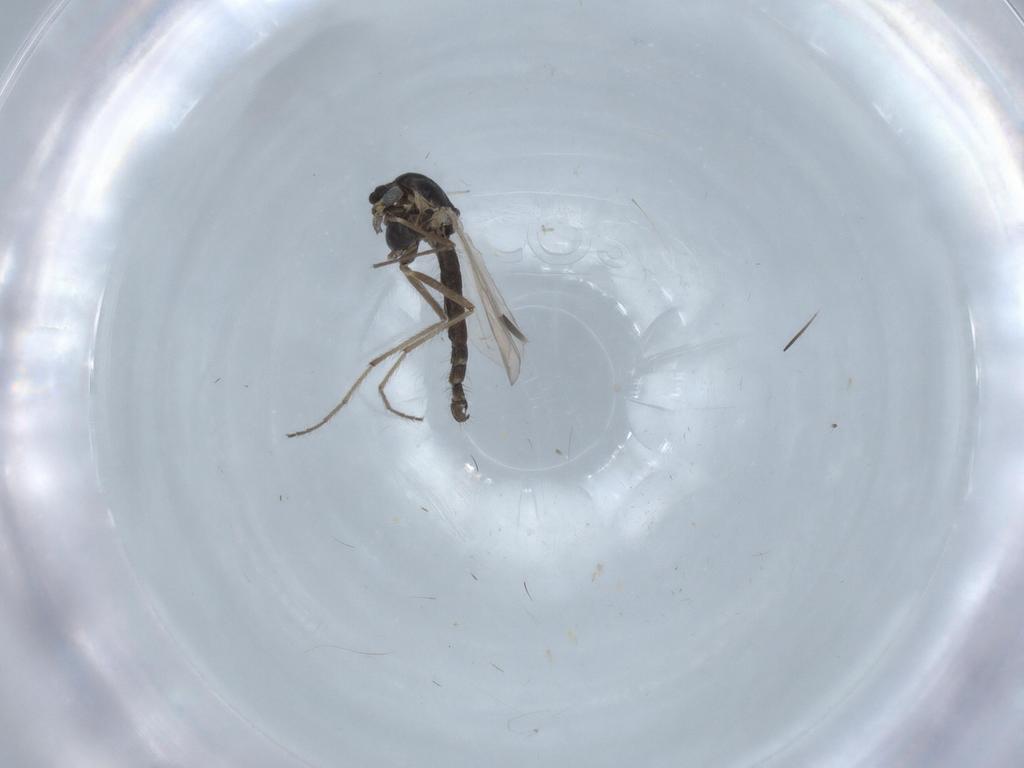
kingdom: Animalia
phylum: Arthropoda
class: Insecta
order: Diptera
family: Chironomidae
